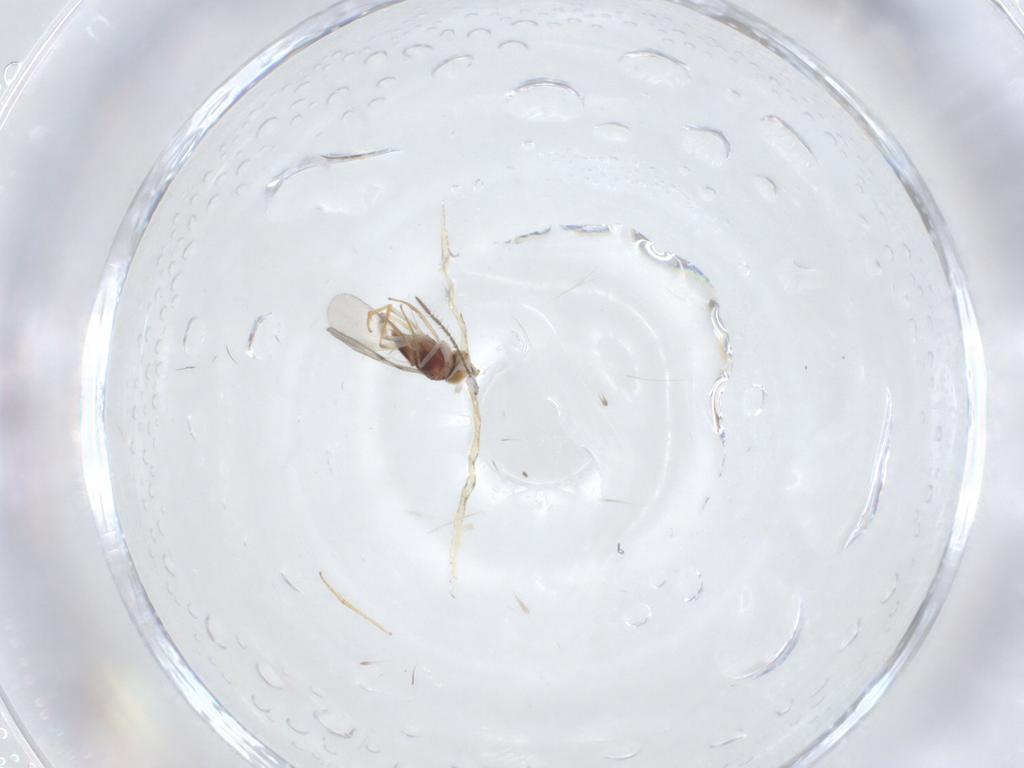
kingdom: Animalia
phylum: Arthropoda
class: Insecta
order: Hymenoptera
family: Encyrtidae
